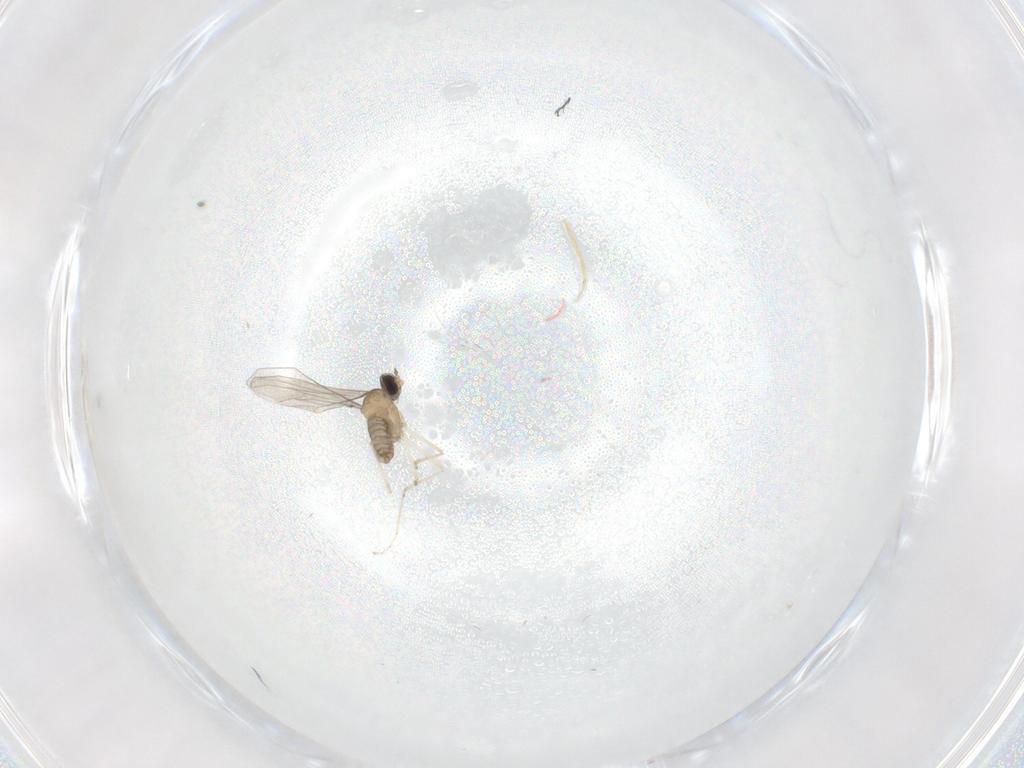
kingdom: Animalia
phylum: Arthropoda
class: Insecta
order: Diptera
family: Cecidomyiidae
